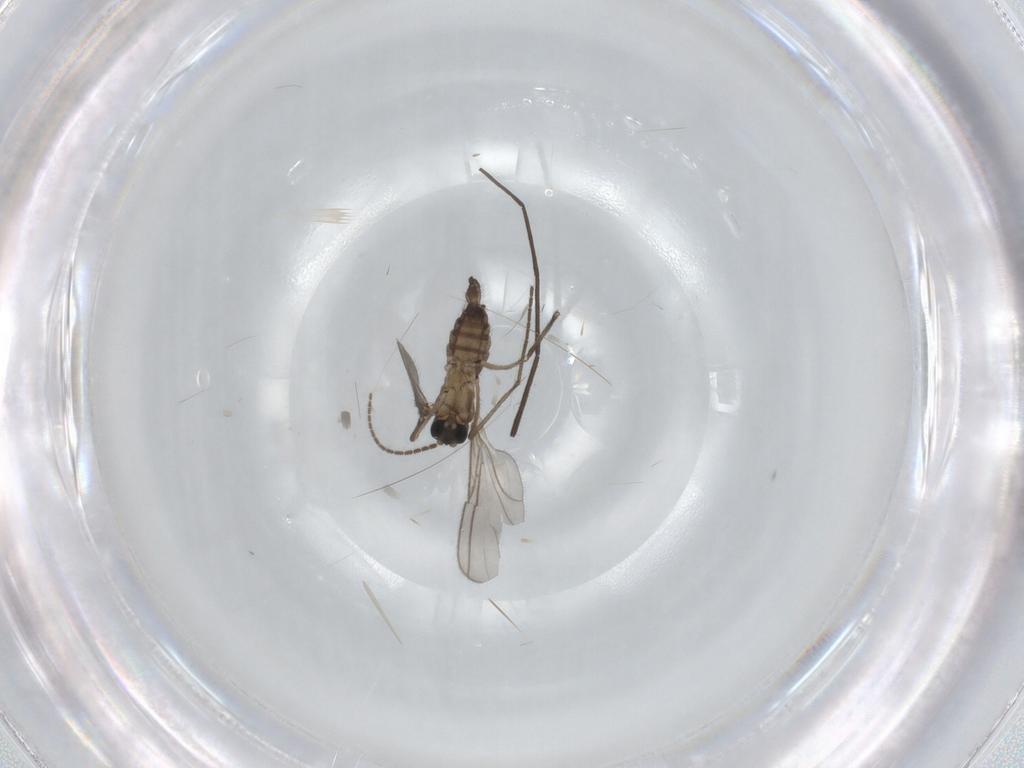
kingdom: Animalia
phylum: Arthropoda
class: Insecta
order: Diptera
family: Sciaridae
